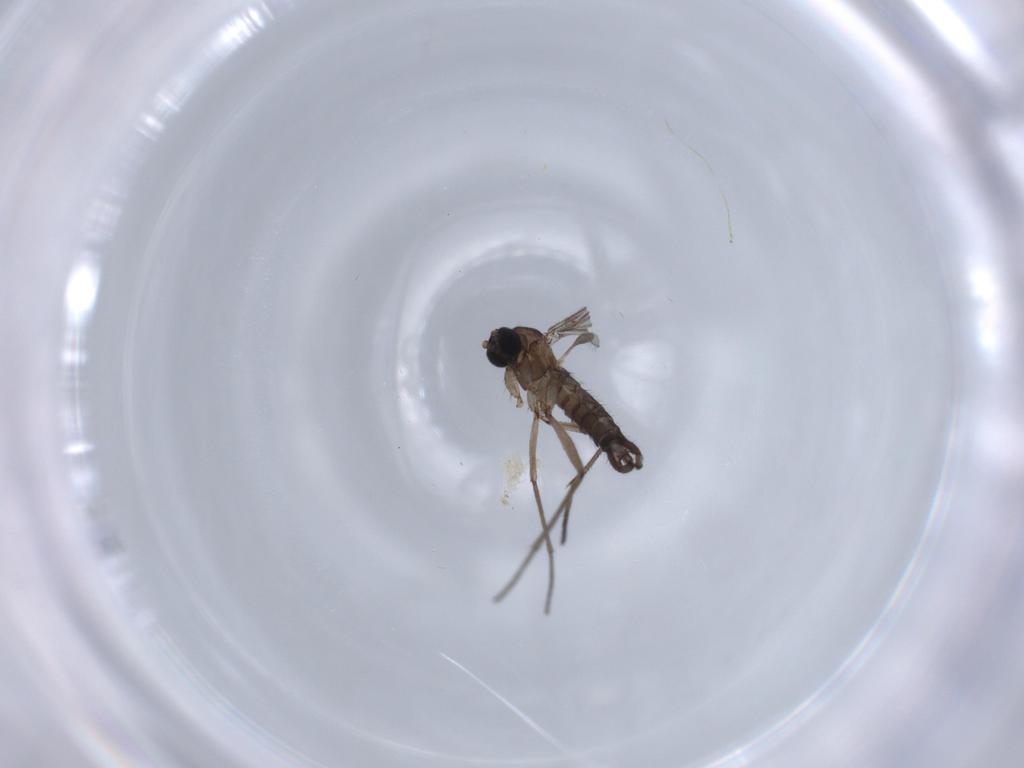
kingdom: Animalia
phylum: Arthropoda
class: Insecta
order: Diptera
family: Sciaridae
